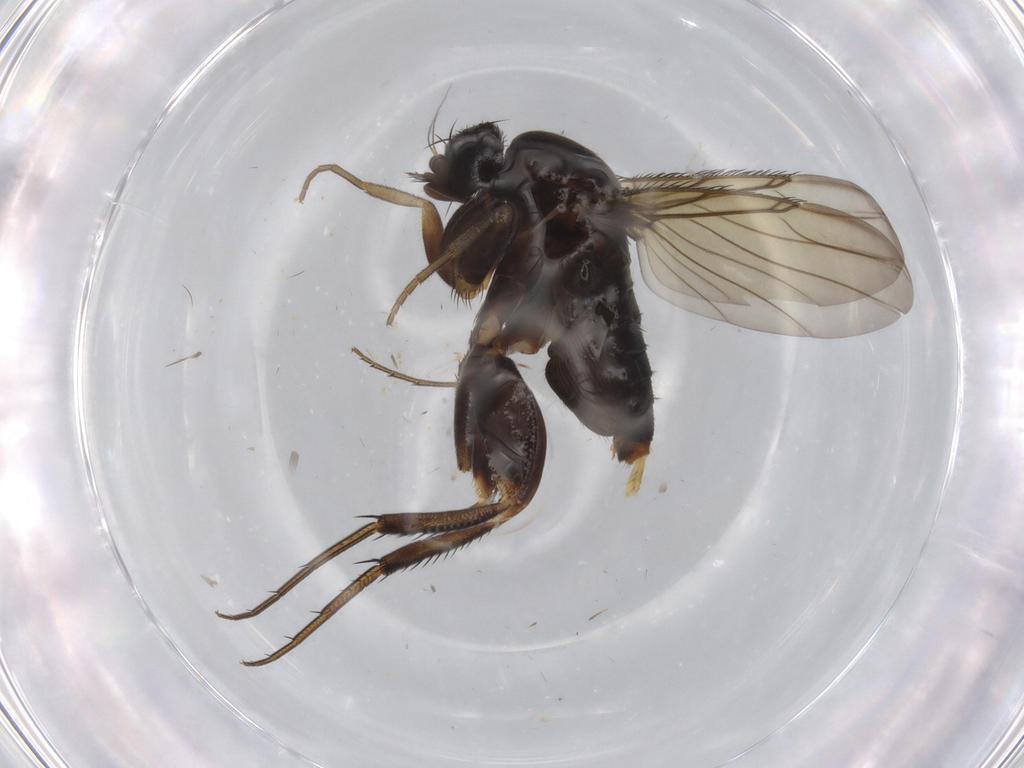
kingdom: Animalia
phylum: Arthropoda
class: Insecta
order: Diptera
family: Phoridae
